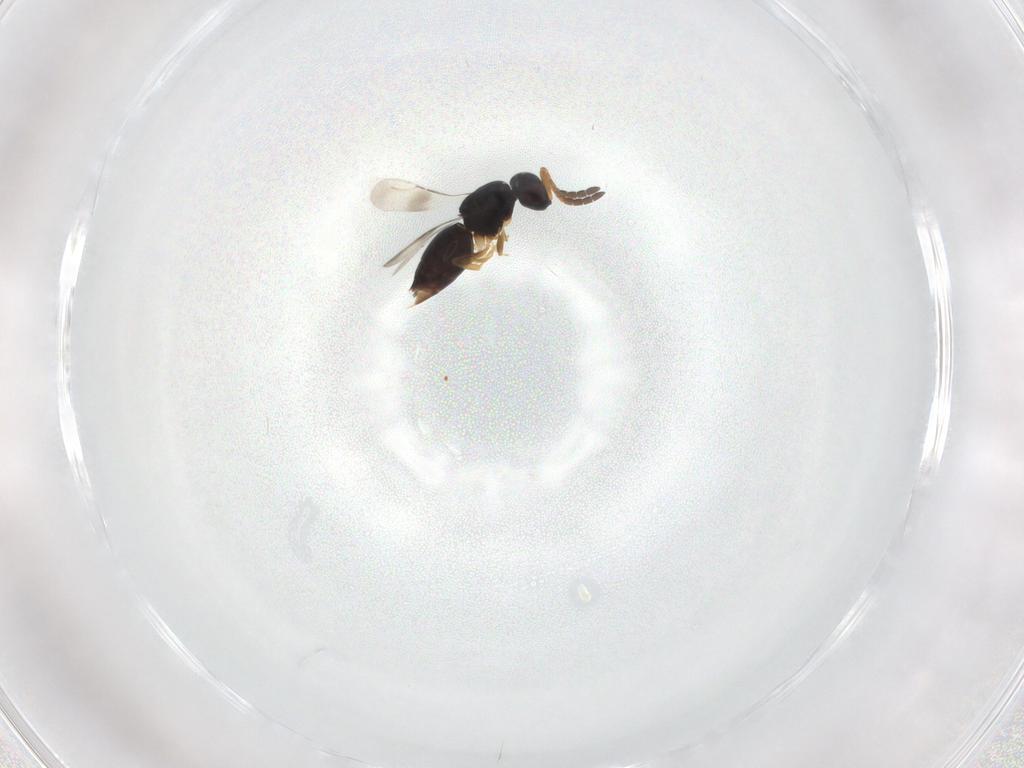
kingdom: Animalia
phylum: Arthropoda
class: Insecta
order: Hymenoptera
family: Ceraphronidae
